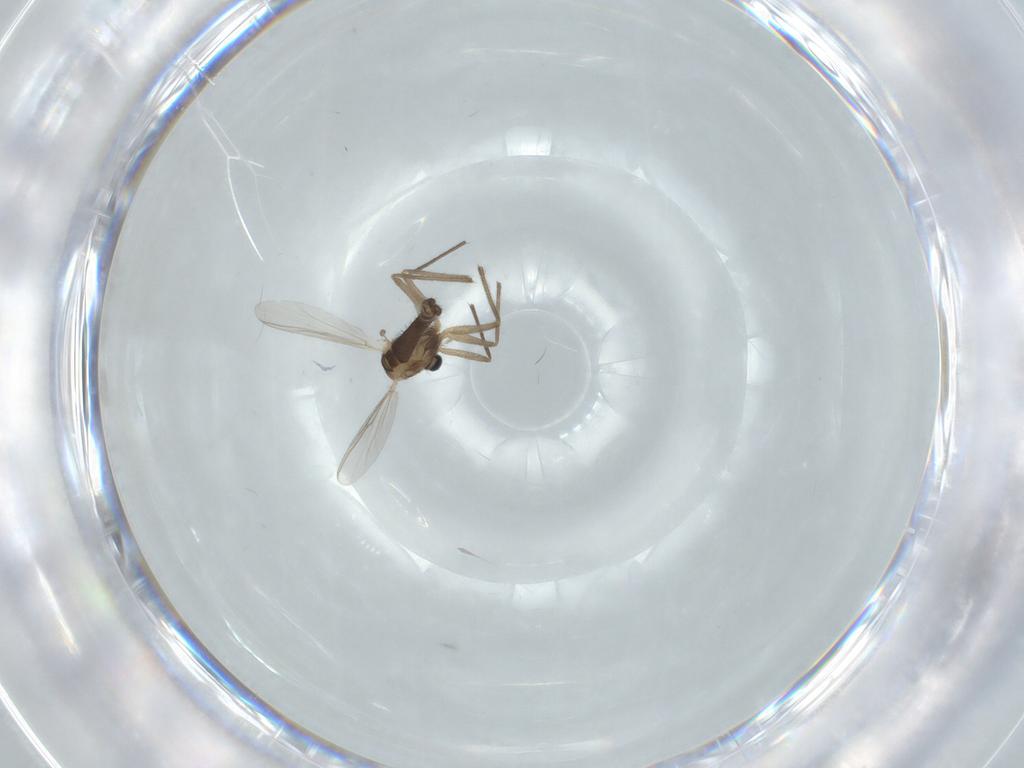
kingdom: Animalia
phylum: Arthropoda
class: Insecta
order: Diptera
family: Chironomidae
